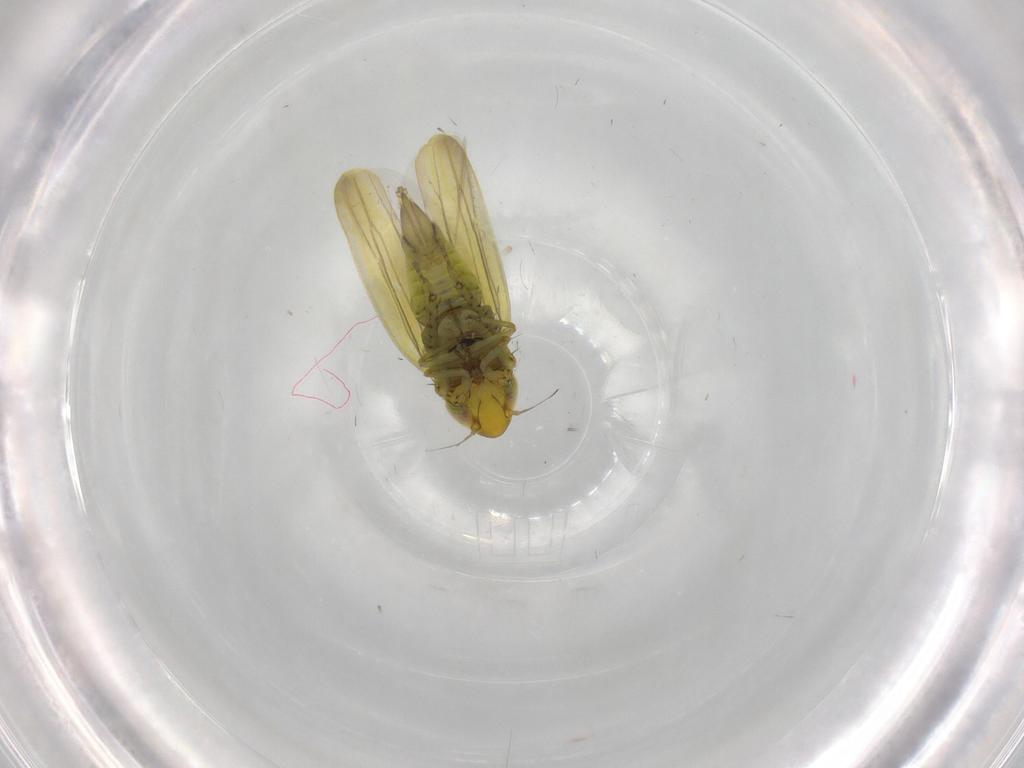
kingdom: Animalia
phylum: Arthropoda
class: Insecta
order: Hemiptera
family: Cicadellidae
